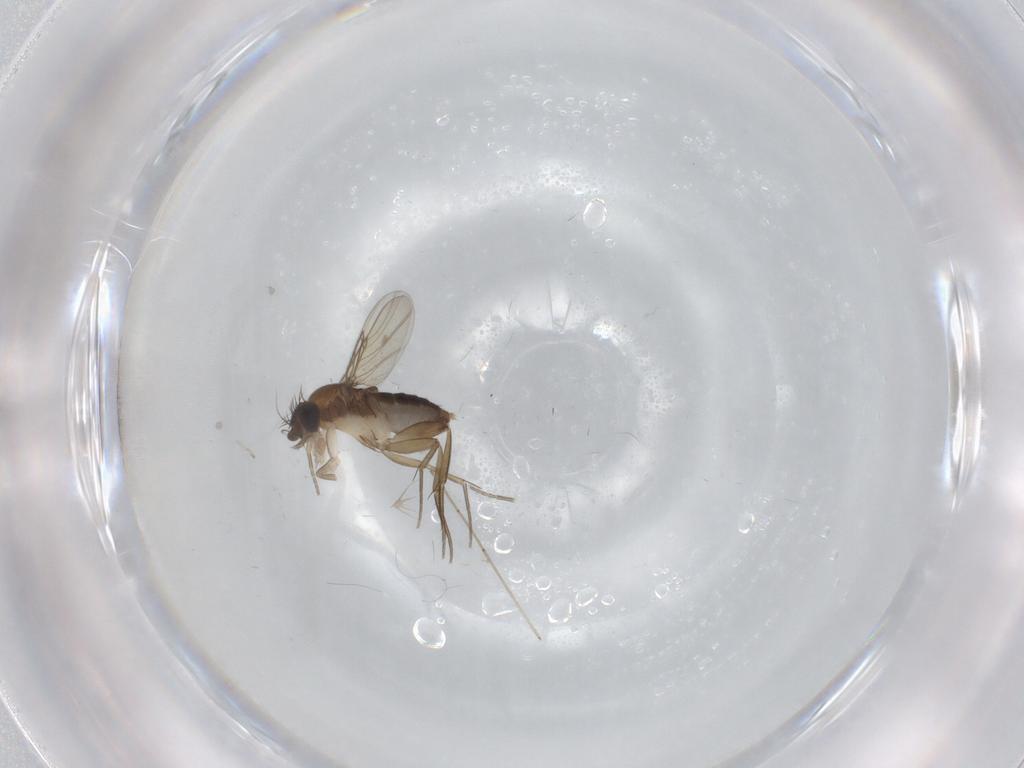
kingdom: Animalia
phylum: Arthropoda
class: Insecta
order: Diptera
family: Phoridae
